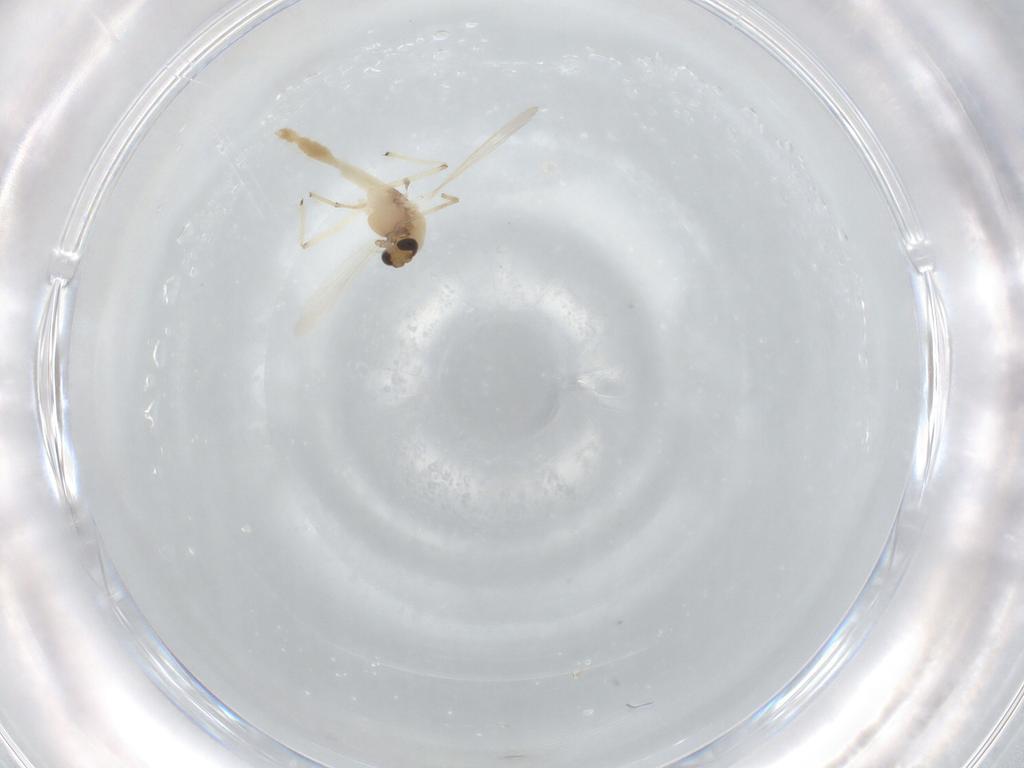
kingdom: Animalia
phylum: Arthropoda
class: Insecta
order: Diptera
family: Chironomidae
